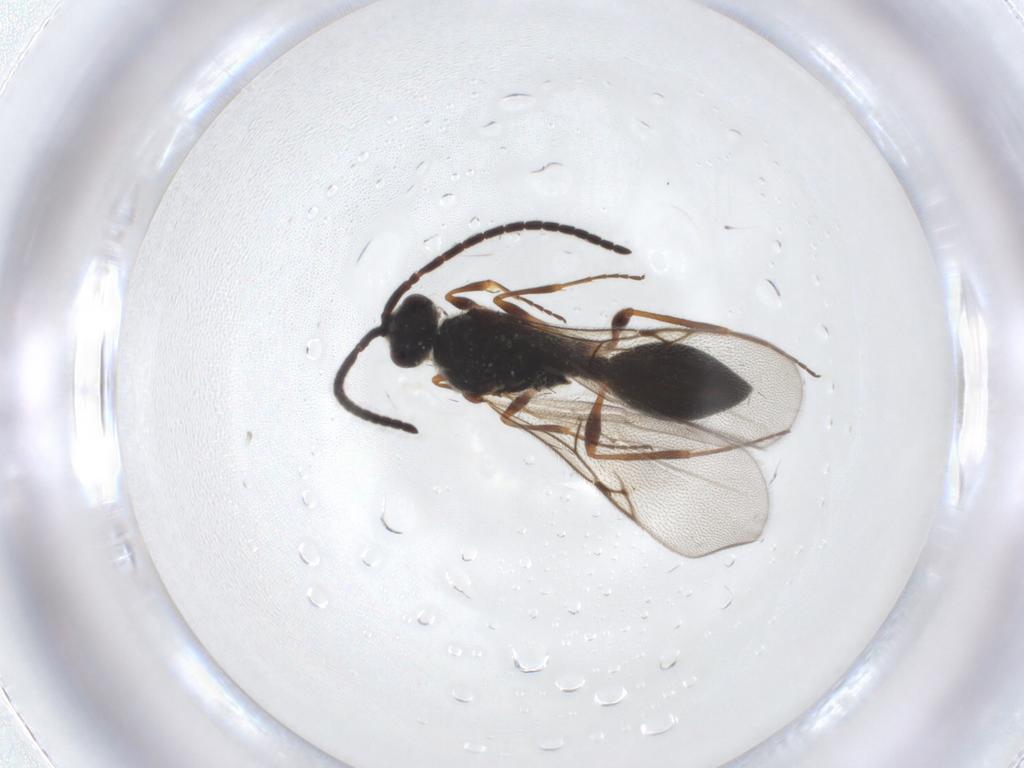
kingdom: Animalia
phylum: Arthropoda
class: Insecta
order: Hymenoptera
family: Diapriidae
